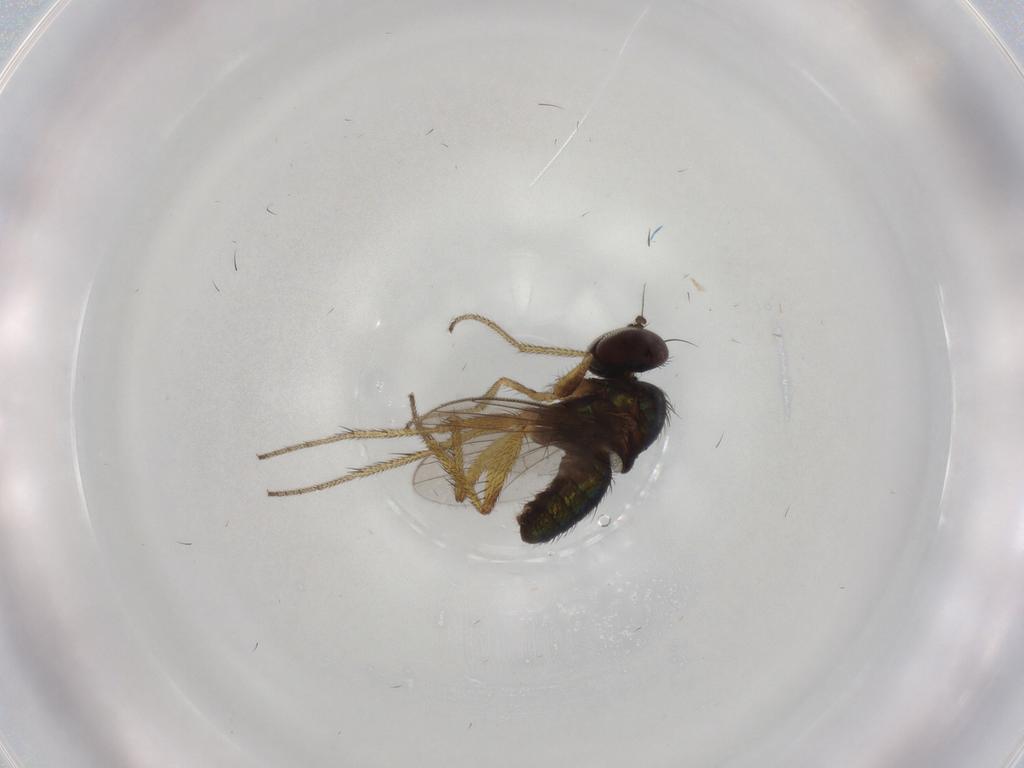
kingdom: Animalia
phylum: Arthropoda
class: Insecta
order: Diptera
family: Dolichopodidae
